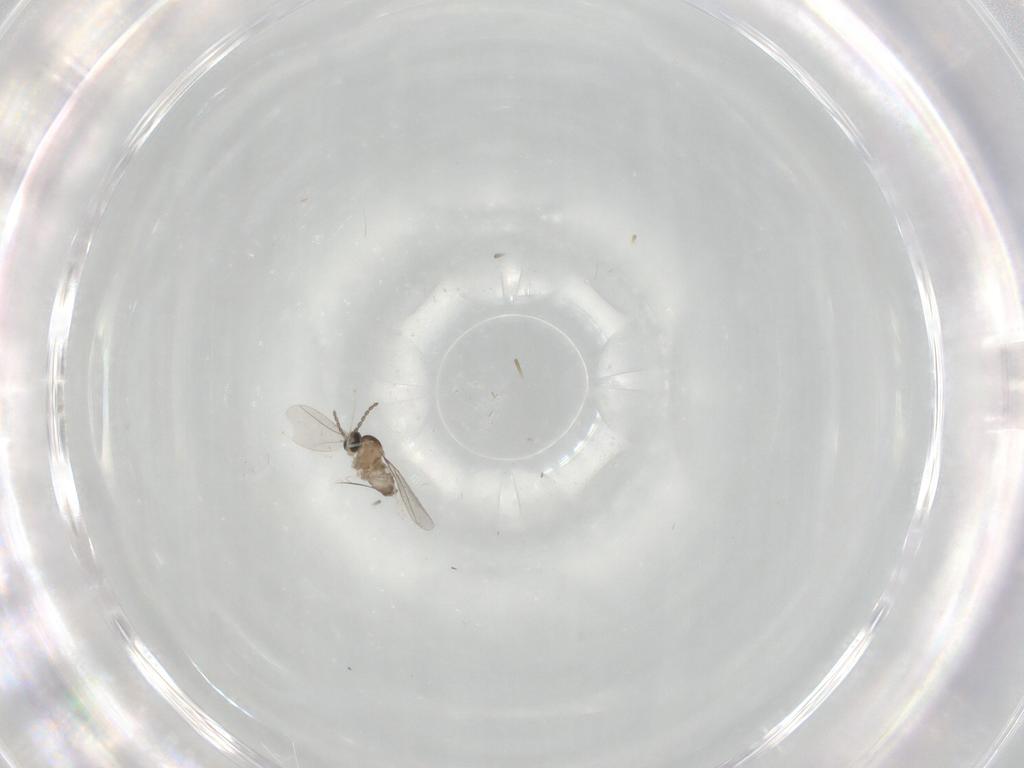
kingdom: Animalia
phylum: Arthropoda
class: Insecta
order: Diptera
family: Cecidomyiidae
